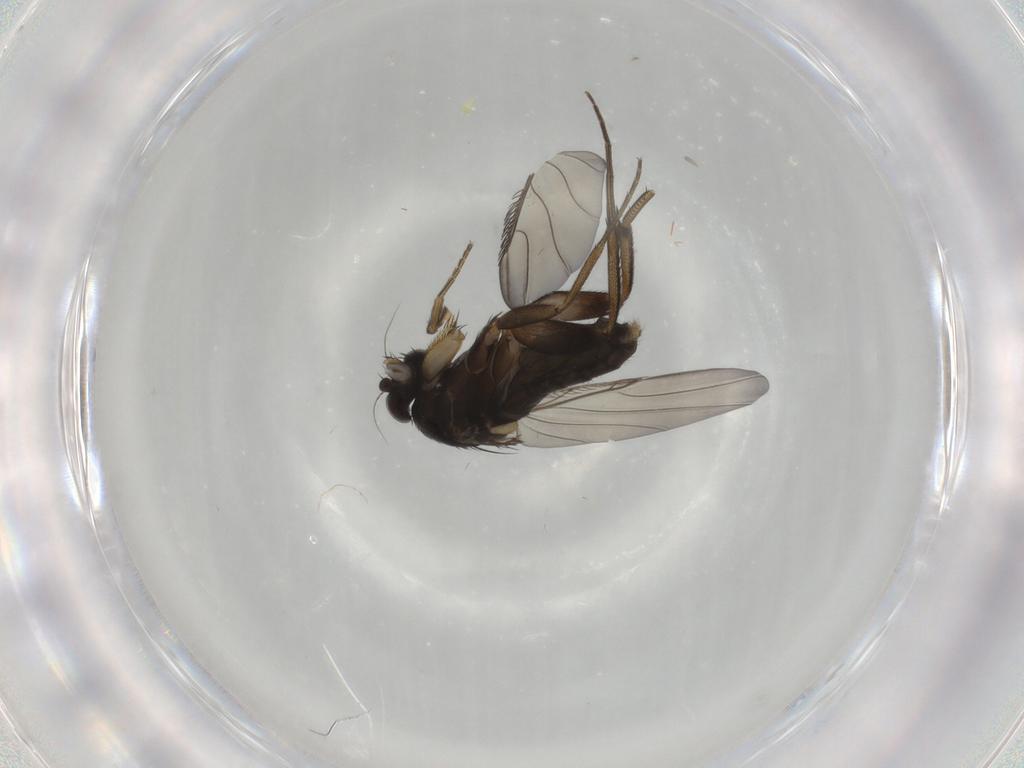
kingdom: Animalia
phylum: Arthropoda
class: Insecta
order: Diptera
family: Phoridae
